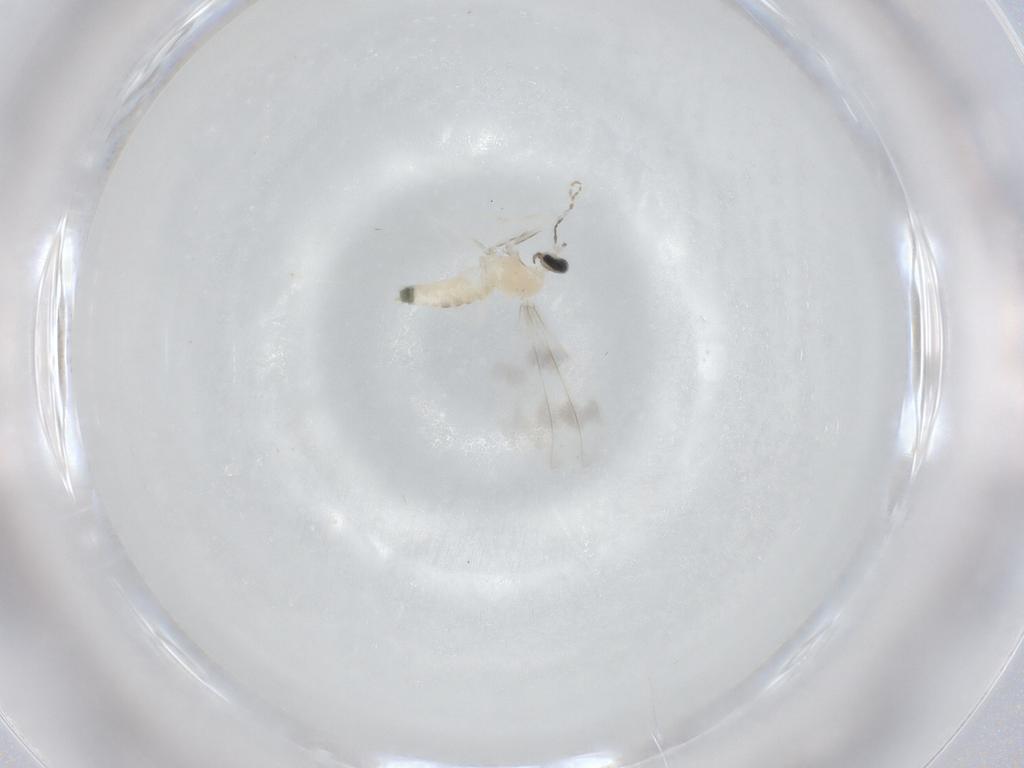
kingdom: Animalia
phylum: Arthropoda
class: Insecta
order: Diptera
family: Cecidomyiidae
